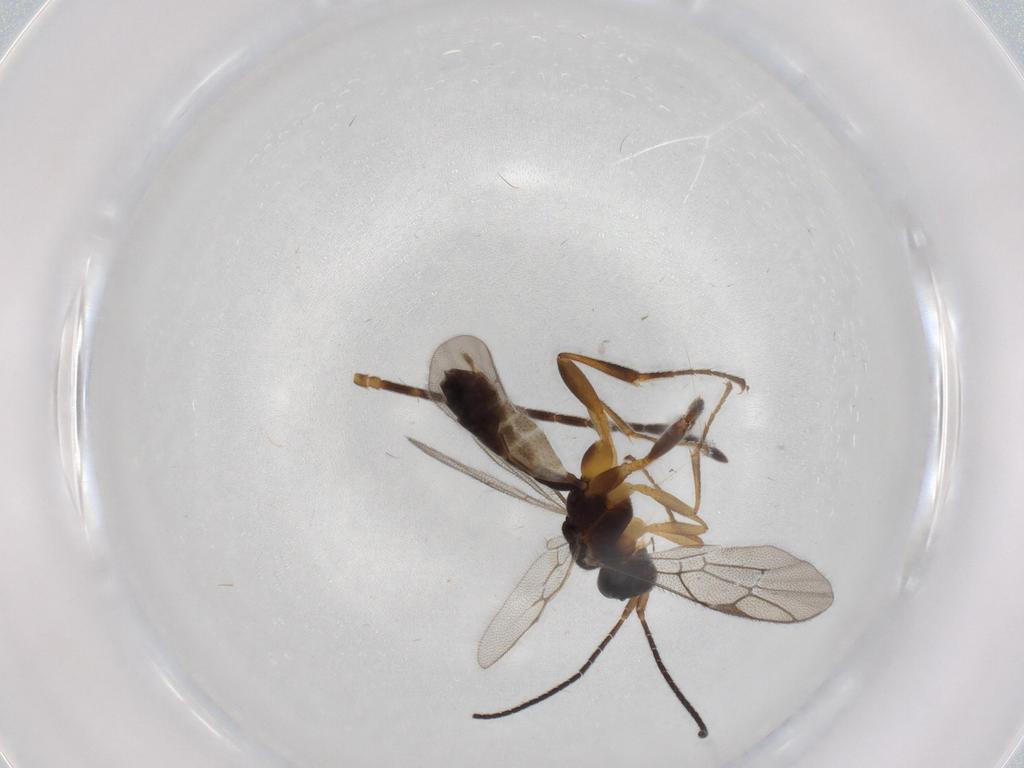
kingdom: Animalia
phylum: Arthropoda
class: Insecta
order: Hymenoptera
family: Formicidae
